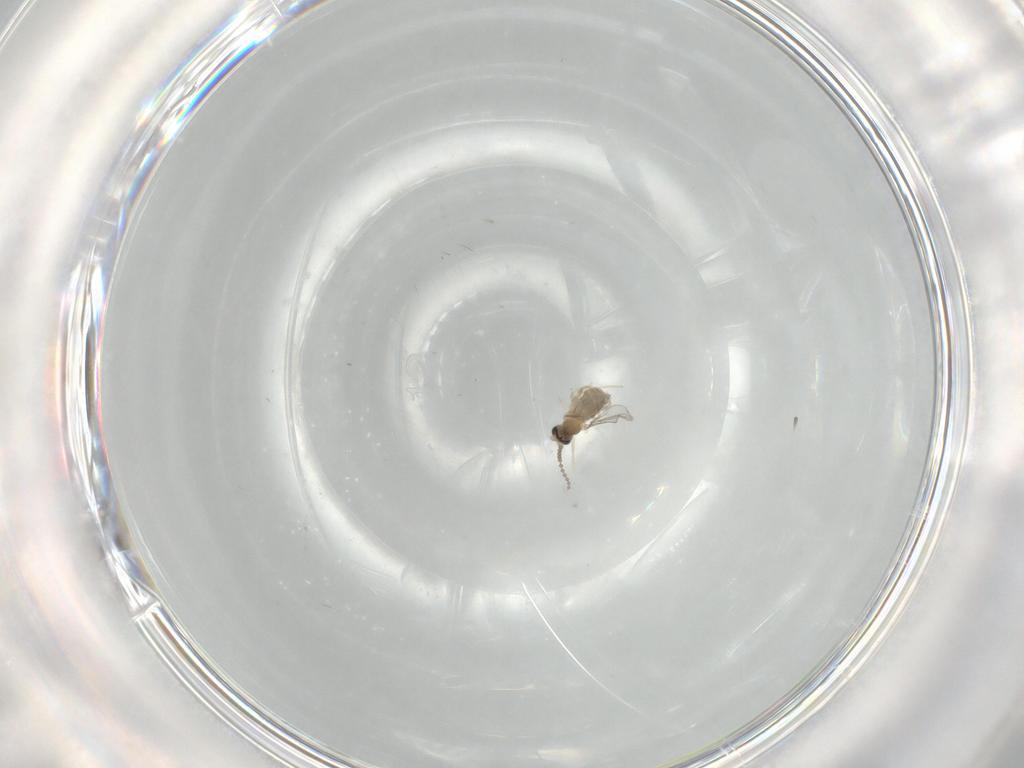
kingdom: Animalia
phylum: Arthropoda
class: Insecta
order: Diptera
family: Cecidomyiidae
